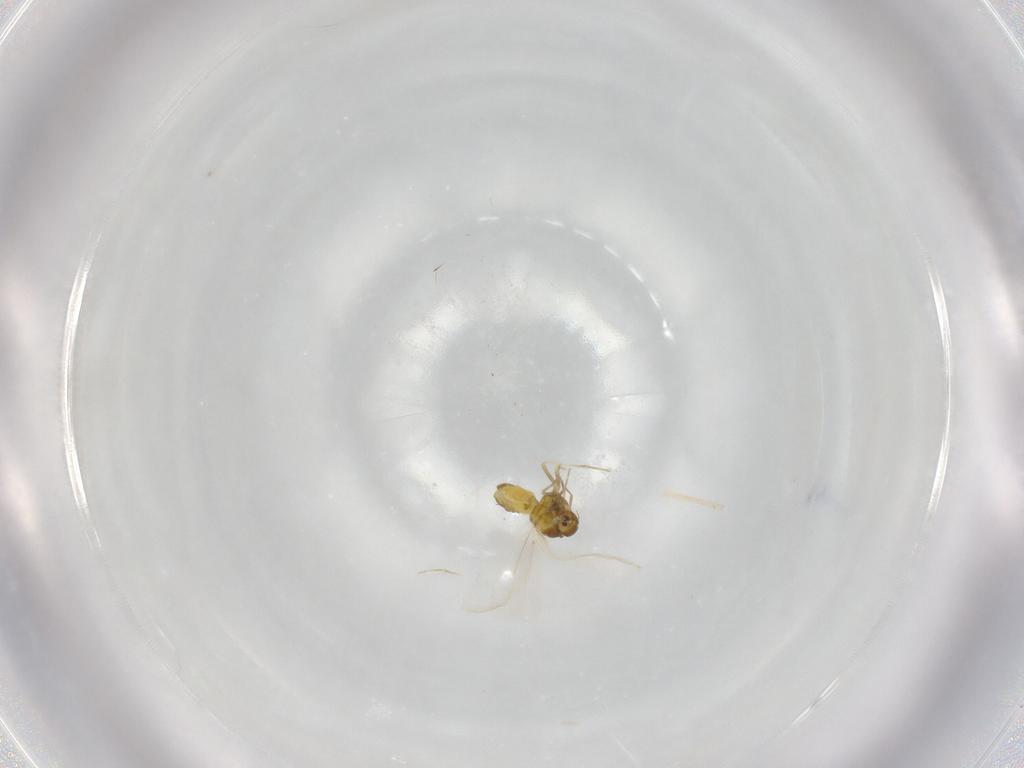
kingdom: Animalia
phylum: Arthropoda
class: Insecta
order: Hemiptera
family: Aleyrodidae
